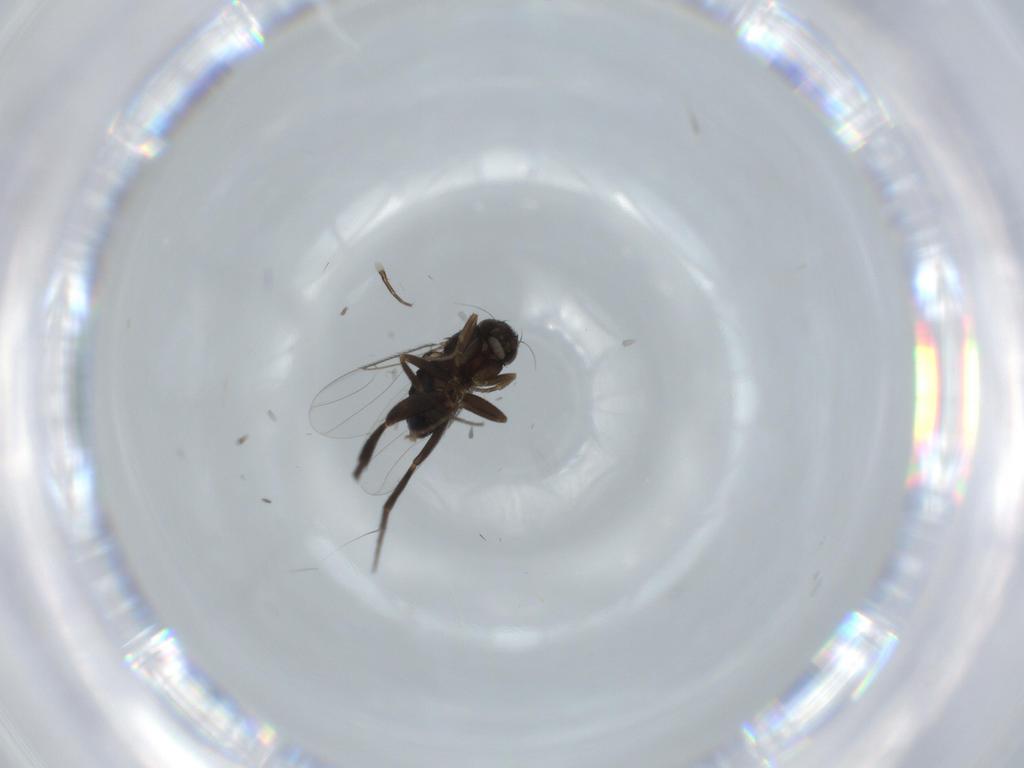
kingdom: Animalia
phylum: Arthropoda
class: Insecta
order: Diptera
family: Phoridae
